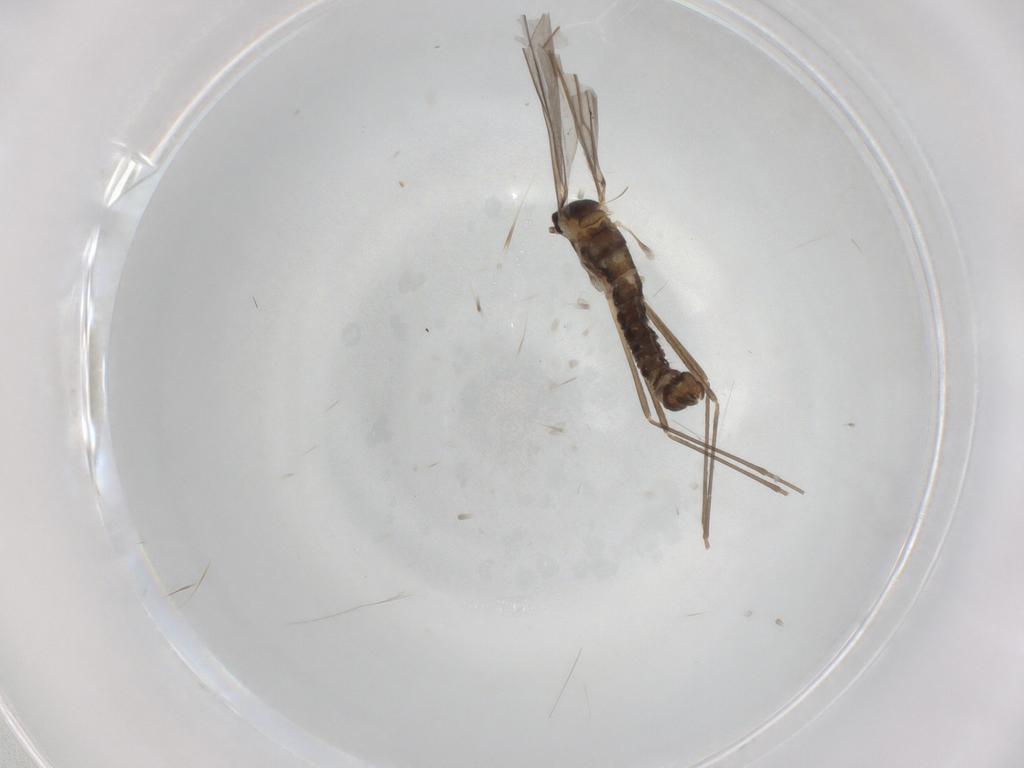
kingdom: Animalia
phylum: Arthropoda
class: Insecta
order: Diptera
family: Cecidomyiidae
